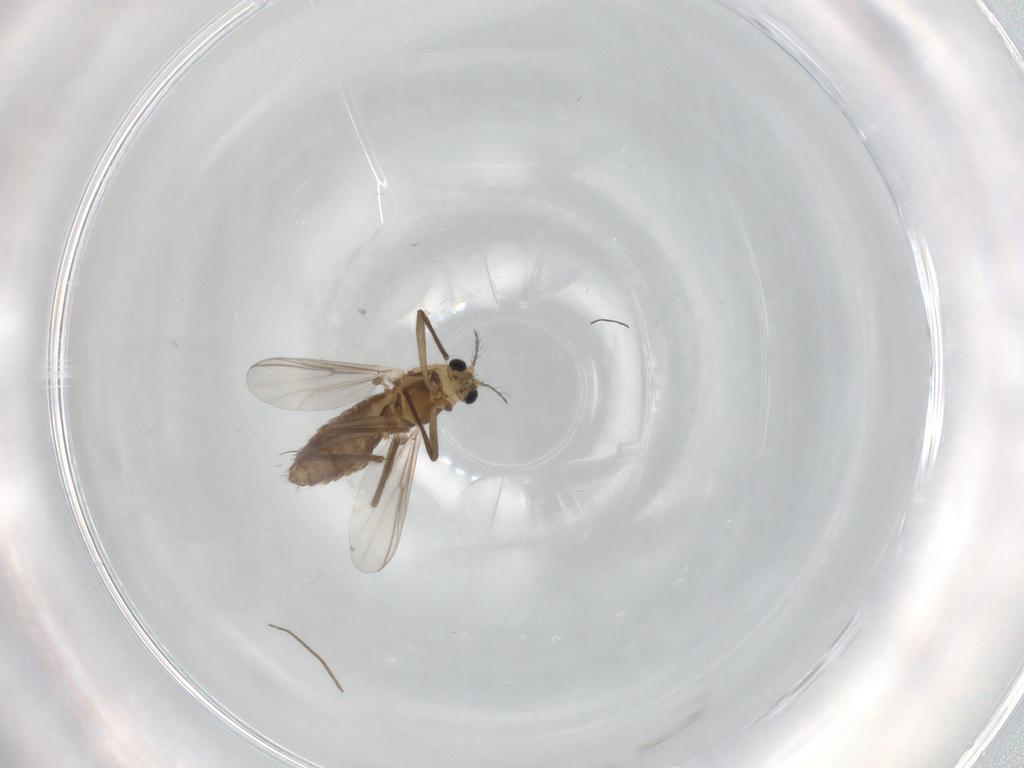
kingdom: Animalia
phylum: Arthropoda
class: Insecta
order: Diptera
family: Chironomidae
